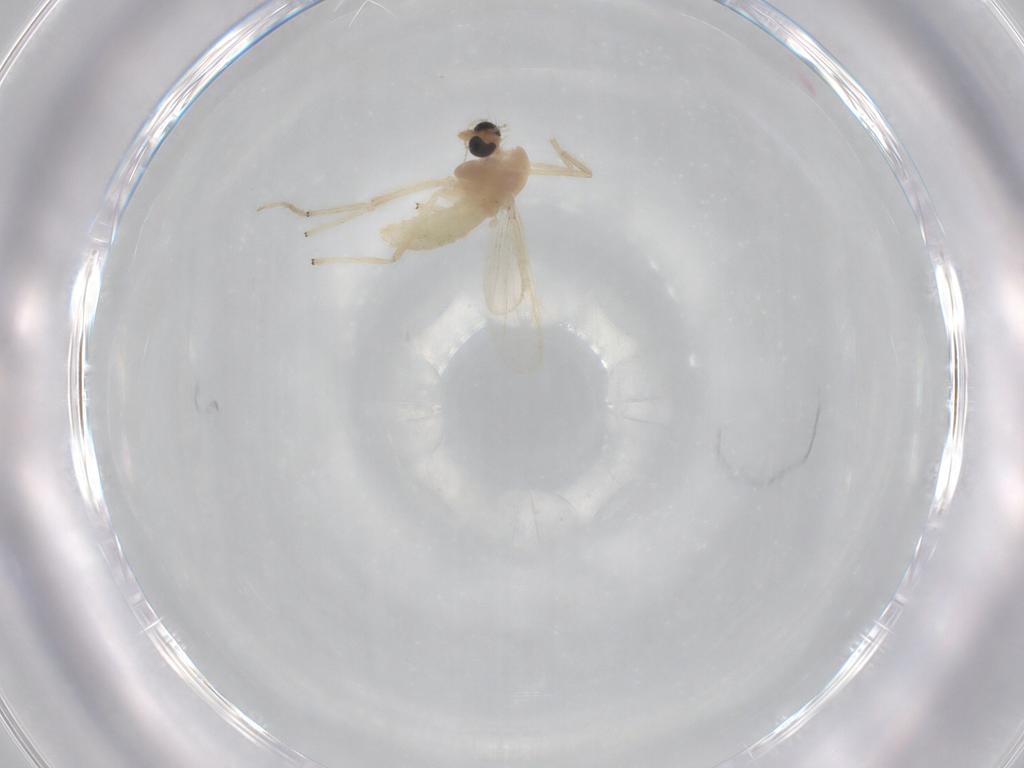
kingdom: Animalia
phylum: Arthropoda
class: Insecta
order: Diptera
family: Chironomidae
